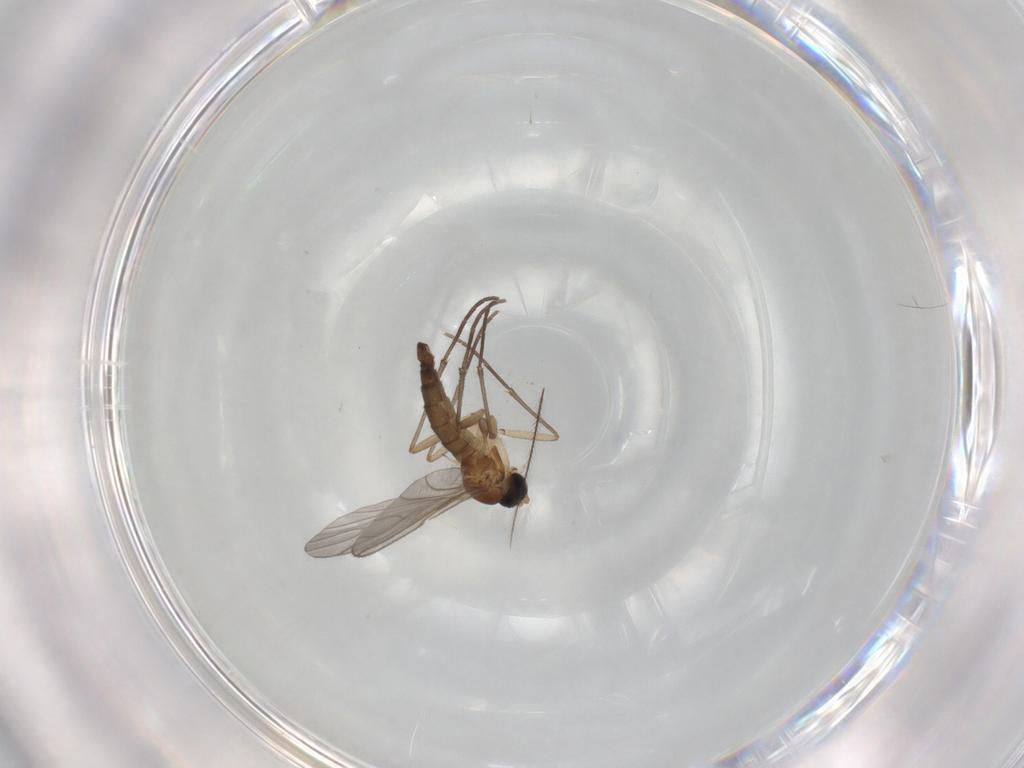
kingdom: Animalia
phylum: Arthropoda
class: Insecta
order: Diptera
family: Sciaridae
